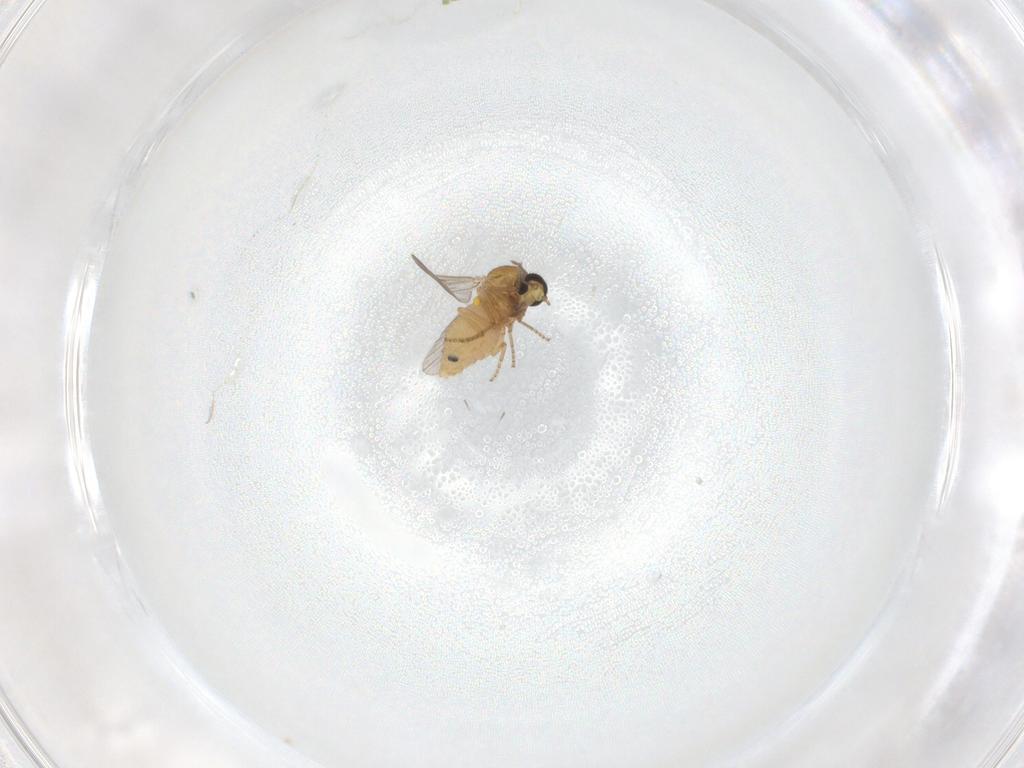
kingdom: Animalia
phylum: Arthropoda
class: Insecta
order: Diptera
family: Ceratopogonidae
